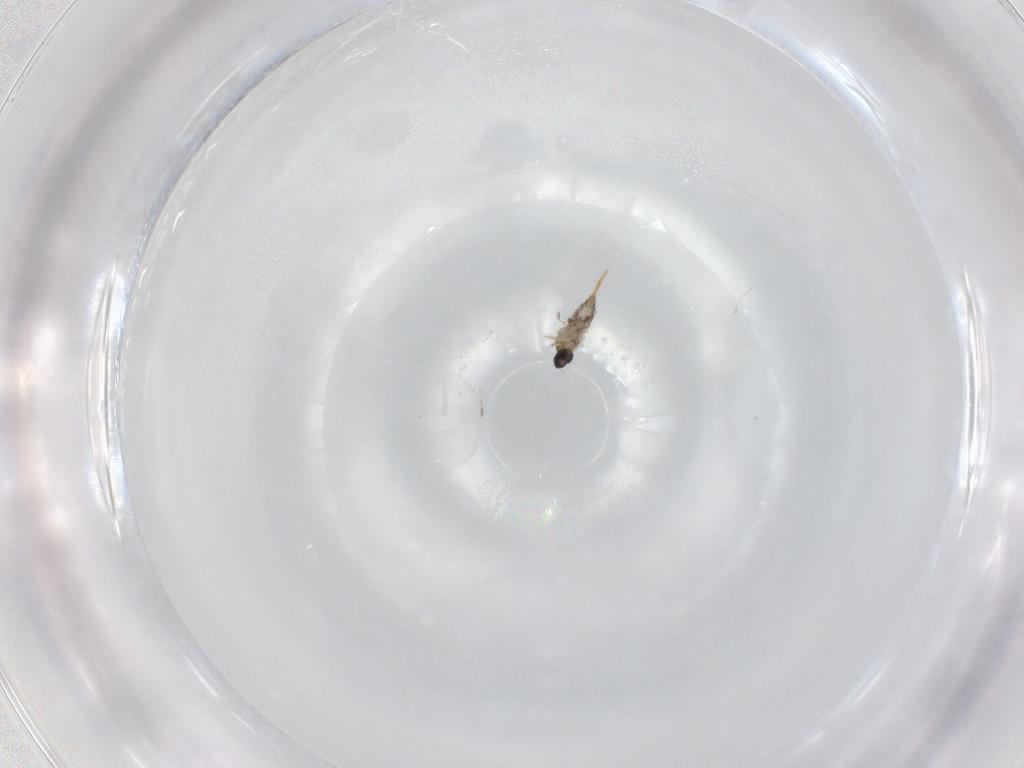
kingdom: Animalia
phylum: Arthropoda
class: Insecta
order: Diptera
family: Cecidomyiidae
